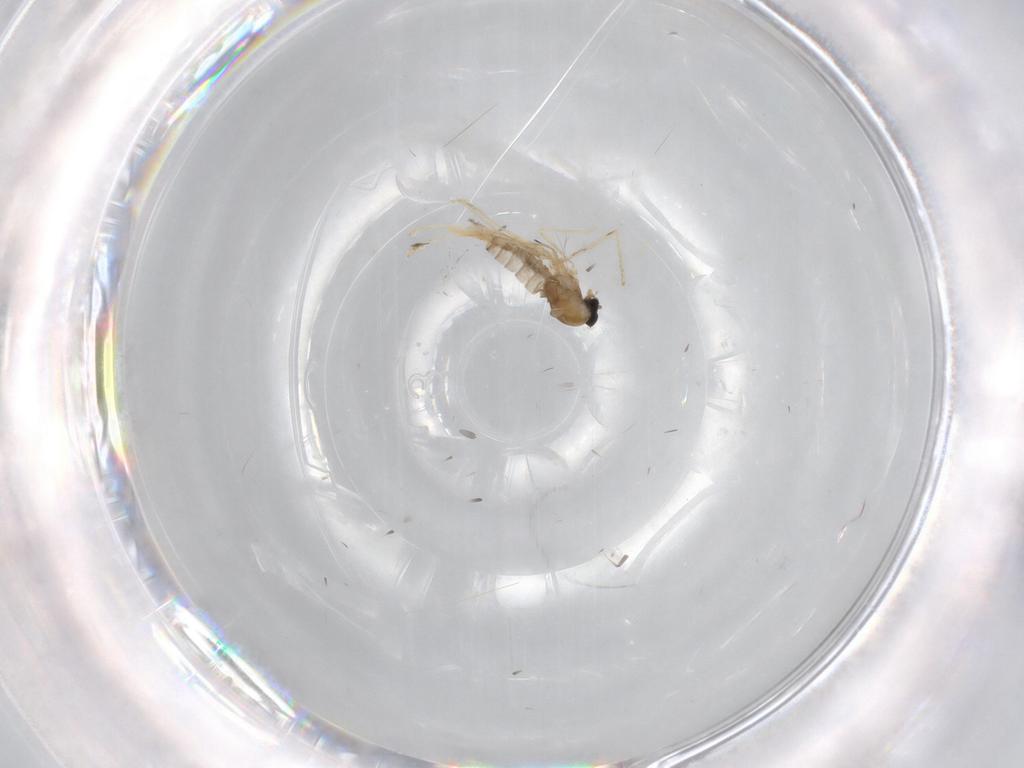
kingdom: Animalia
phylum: Arthropoda
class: Insecta
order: Diptera
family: Cecidomyiidae
